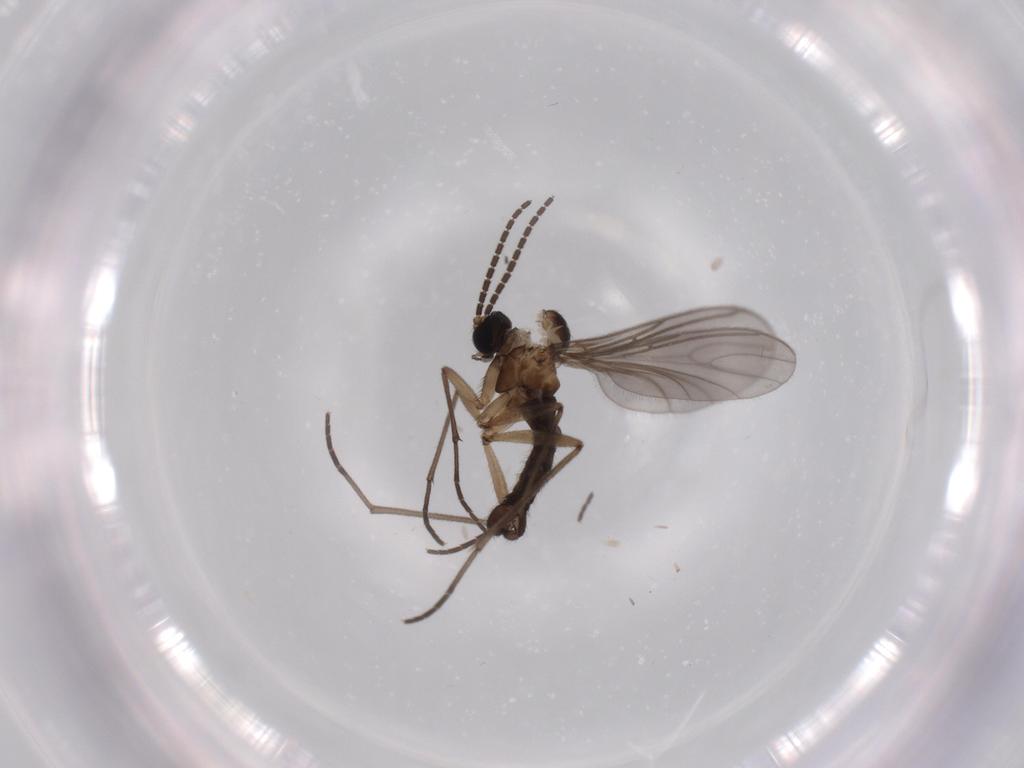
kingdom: Animalia
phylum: Arthropoda
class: Insecta
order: Diptera
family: Sciaridae
